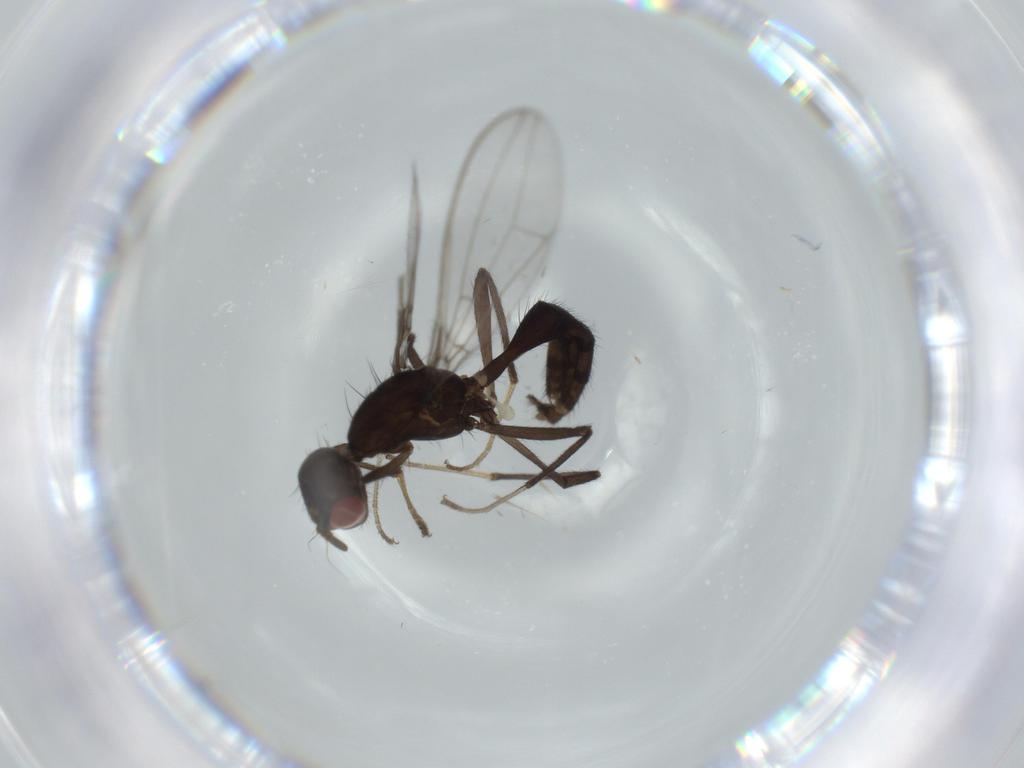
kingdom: Animalia
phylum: Arthropoda
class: Insecta
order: Diptera
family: Richardiidae
